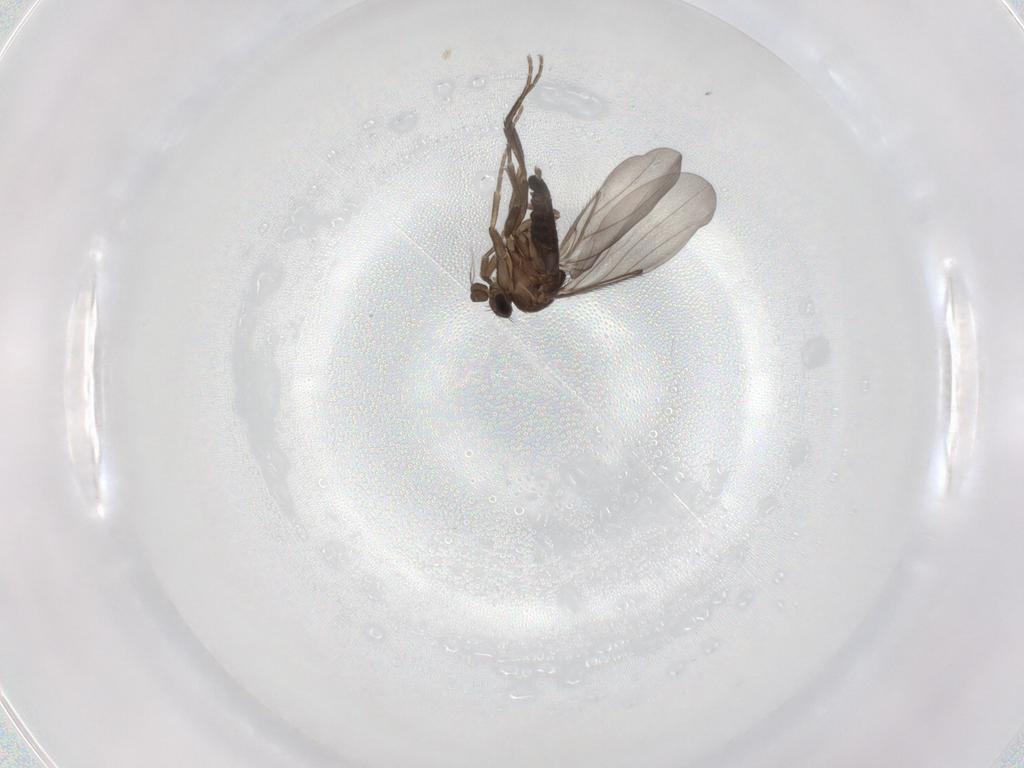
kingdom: Animalia
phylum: Arthropoda
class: Insecta
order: Diptera
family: Phoridae
